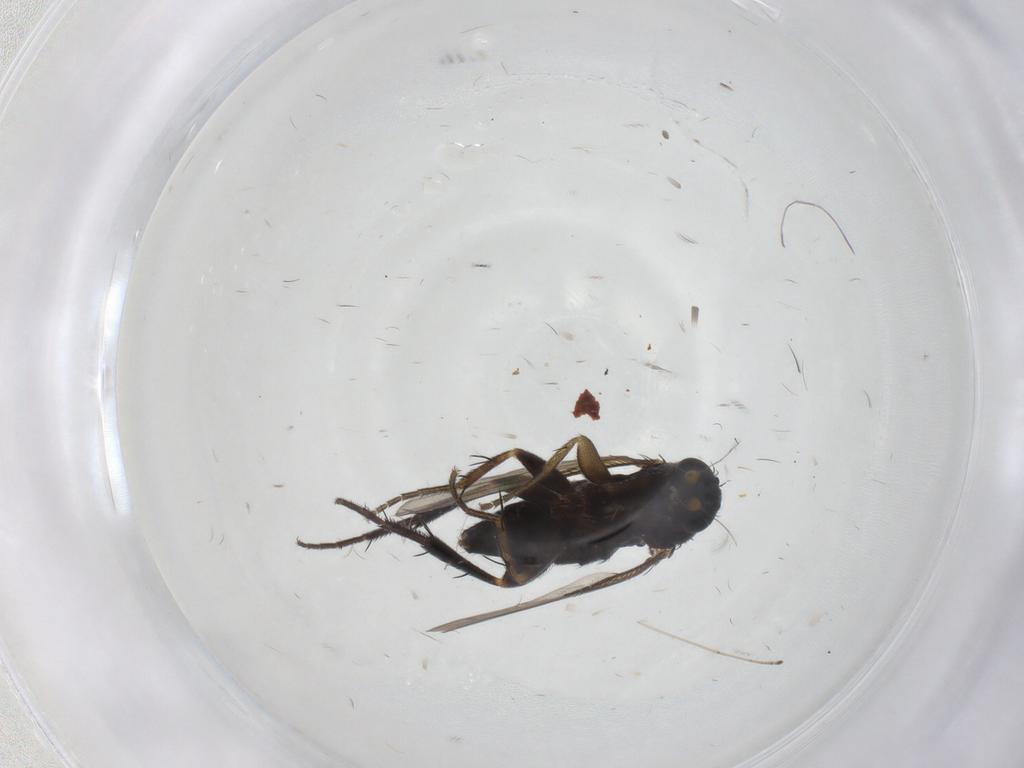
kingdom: Animalia
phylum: Arthropoda
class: Insecta
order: Diptera
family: Phoridae
